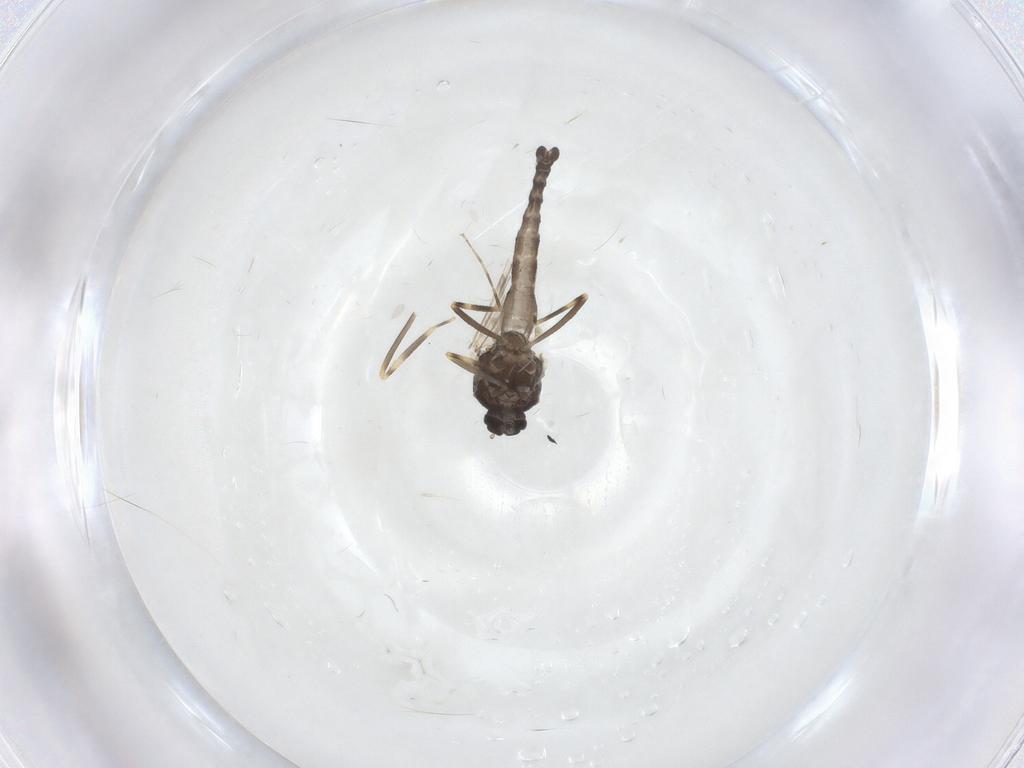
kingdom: Animalia
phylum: Arthropoda
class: Insecta
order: Diptera
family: Ceratopogonidae
